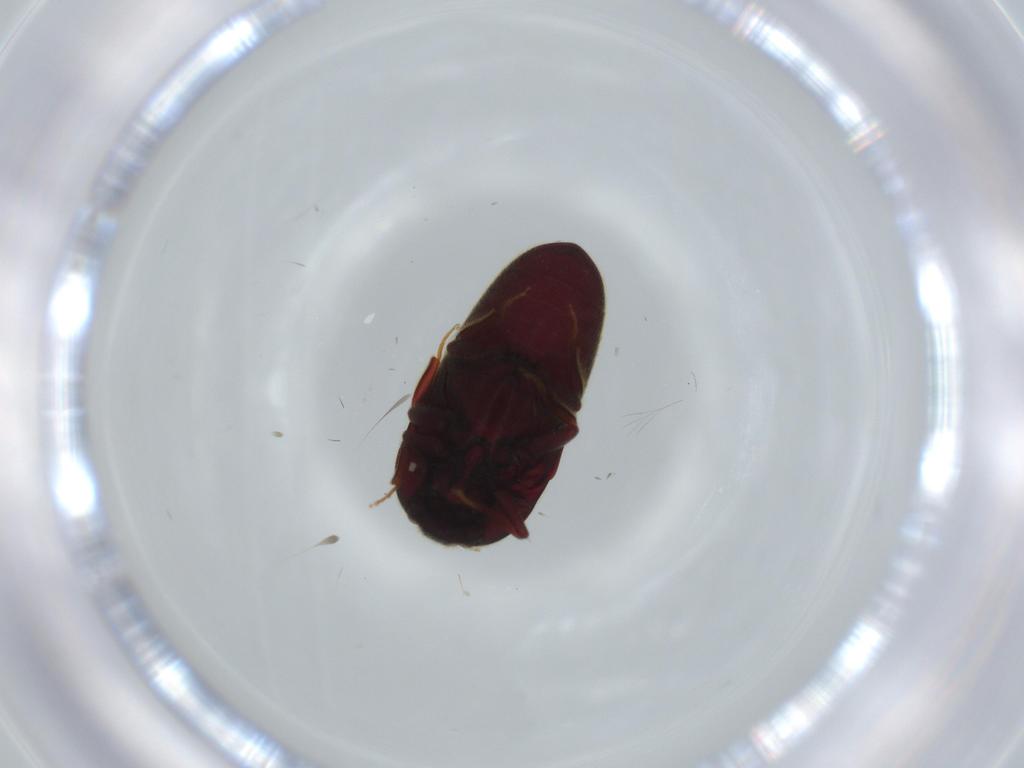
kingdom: Animalia
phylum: Arthropoda
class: Insecta
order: Coleoptera
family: Throscidae
